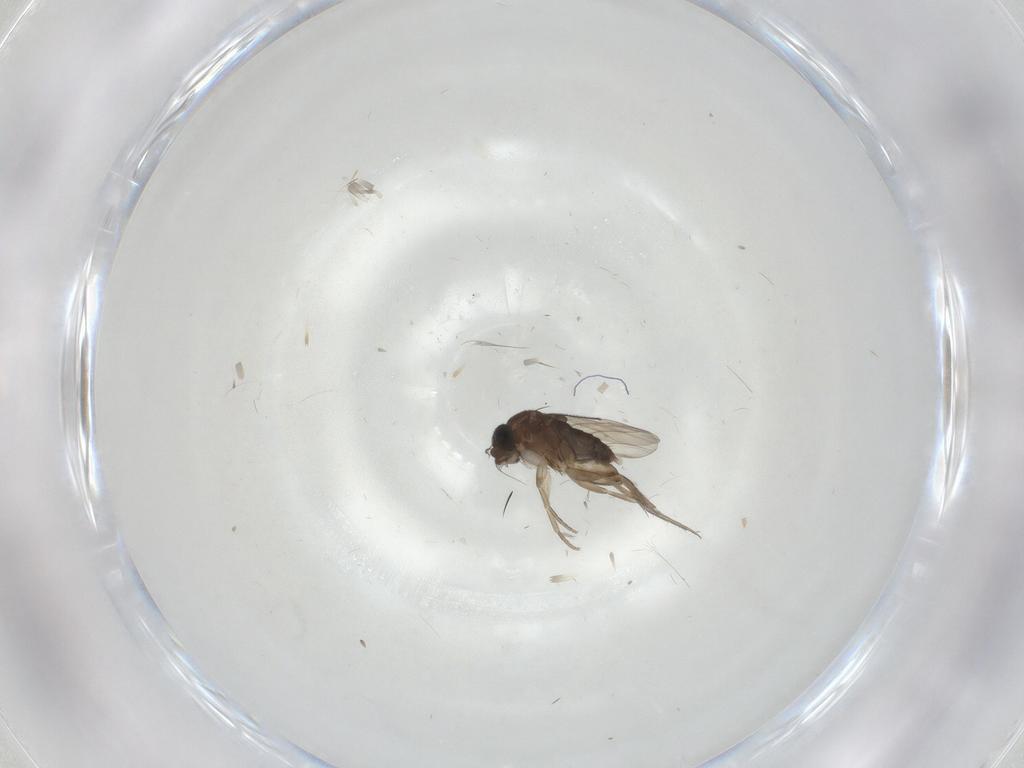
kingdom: Animalia
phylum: Arthropoda
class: Insecta
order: Diptera
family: Phoridae
